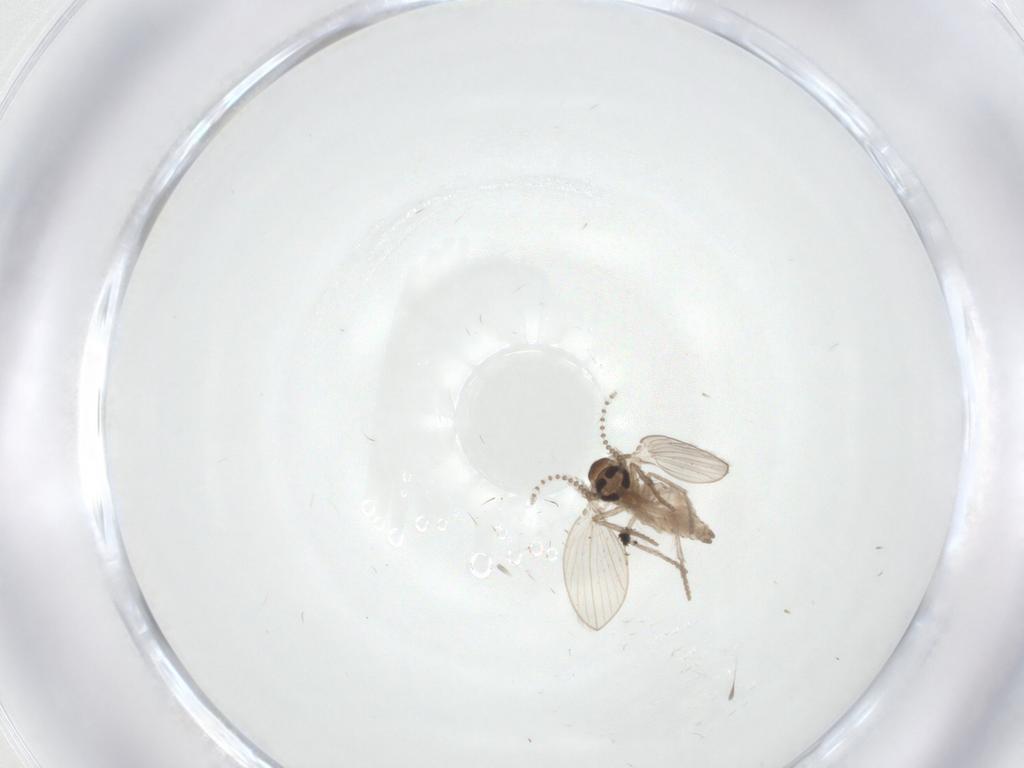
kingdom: Animalia
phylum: Arthropoda
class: Insecta
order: Diptera
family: Psychodidae
